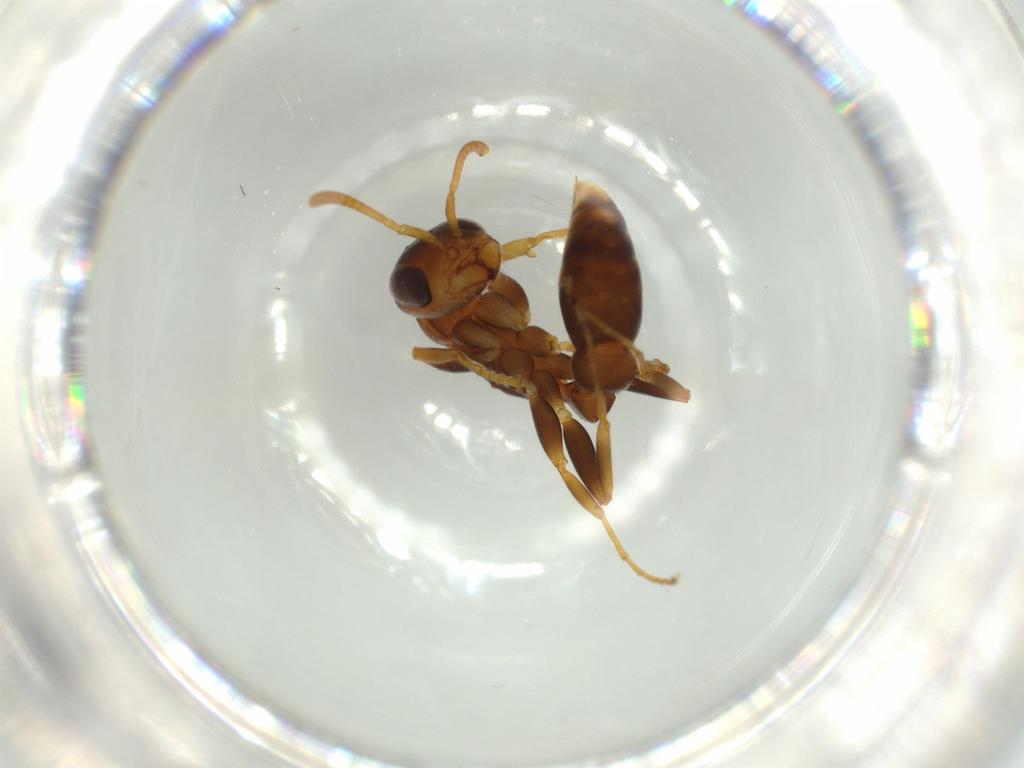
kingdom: Animalia
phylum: Arthropoda
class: Insecta
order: Hymenoptera
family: Formicidae
